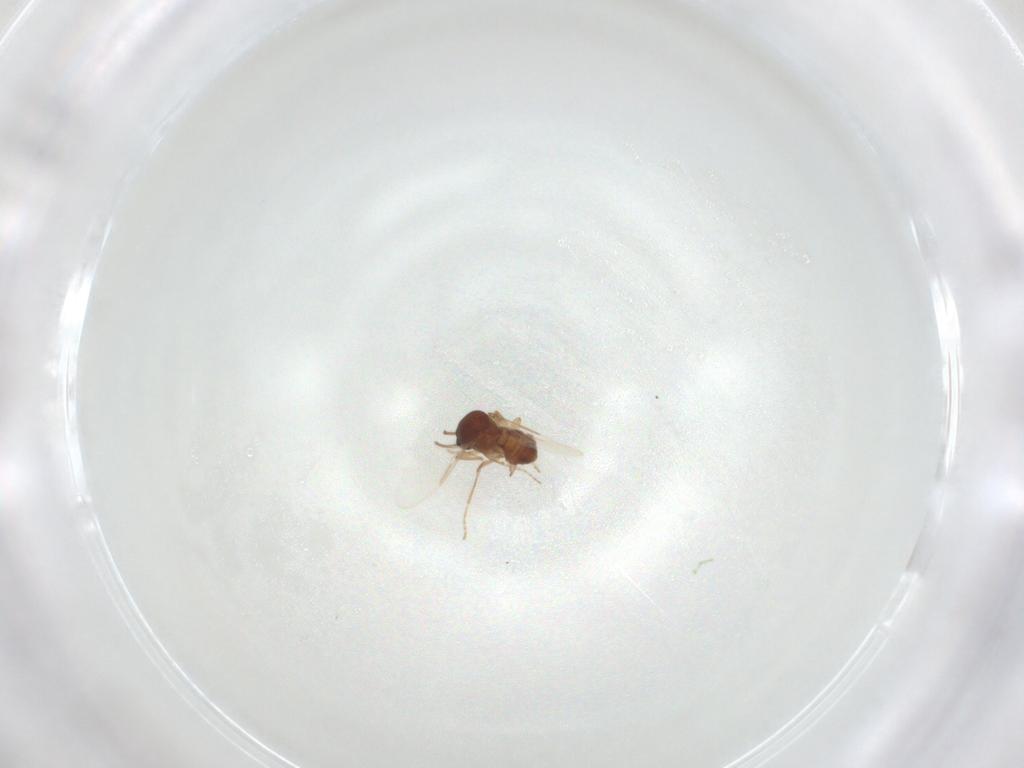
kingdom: Animalia
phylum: Arthropoda
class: Insecta
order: Diptera
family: Ceratopogonidae
